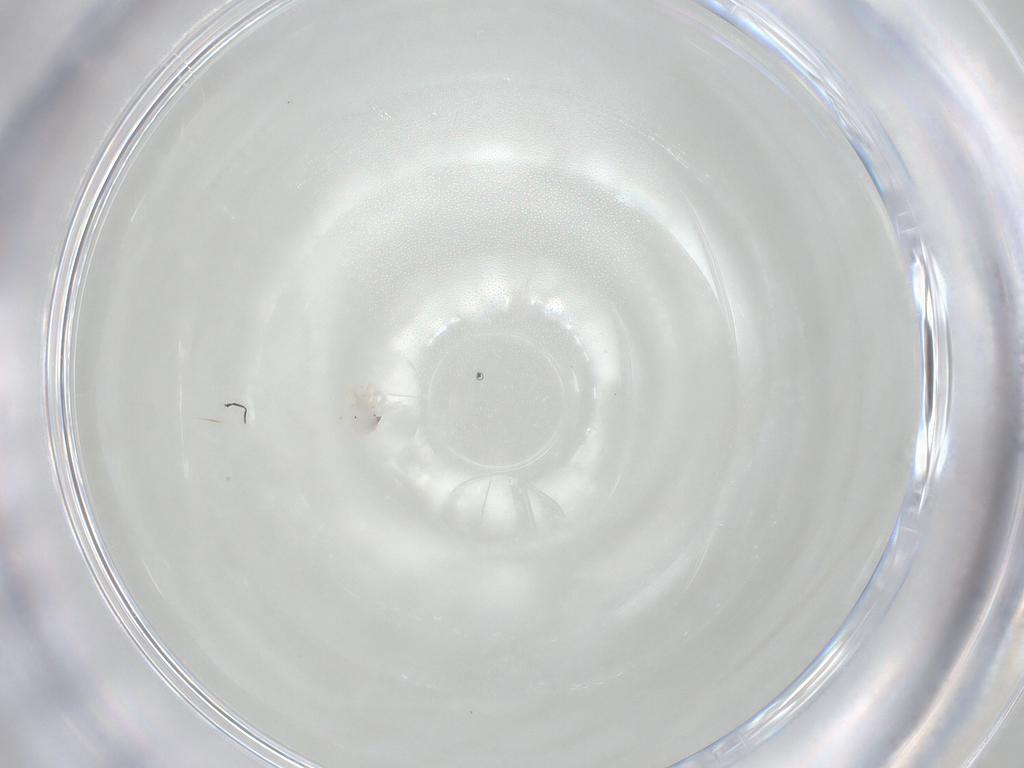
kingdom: Animalia
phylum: Arthropoda
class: Arachnida
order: Trombidiformes
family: Anystidae
